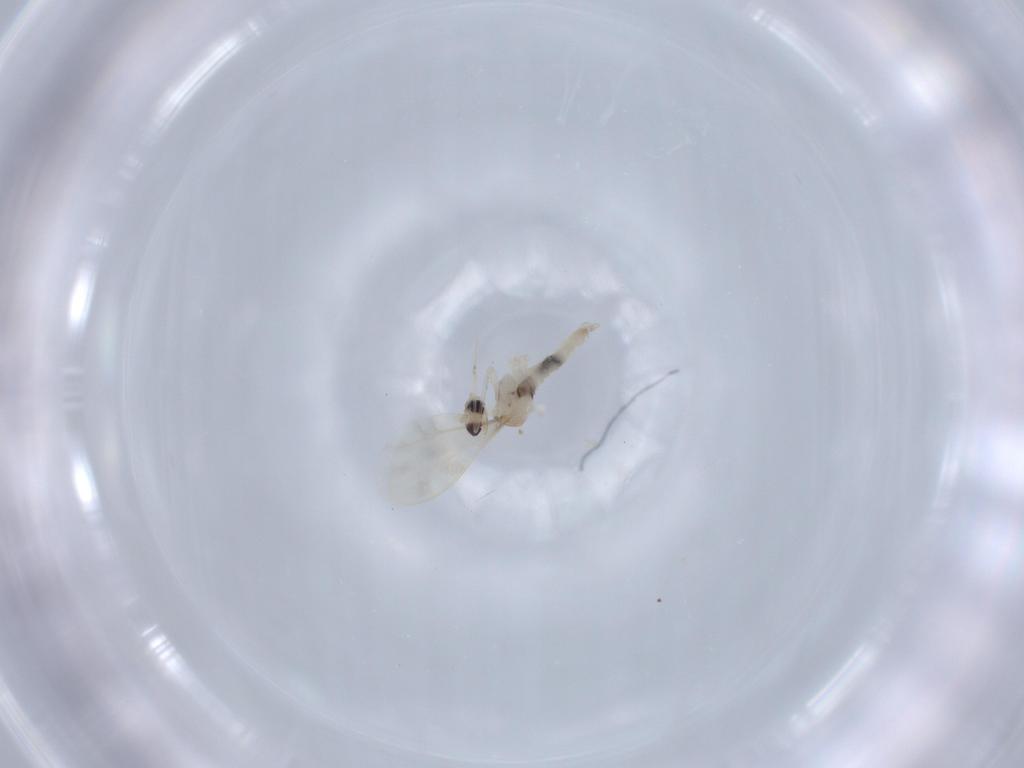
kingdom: Animalia
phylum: Arthropoda
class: Insecta
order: Diptera
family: Cecidomyiidae
